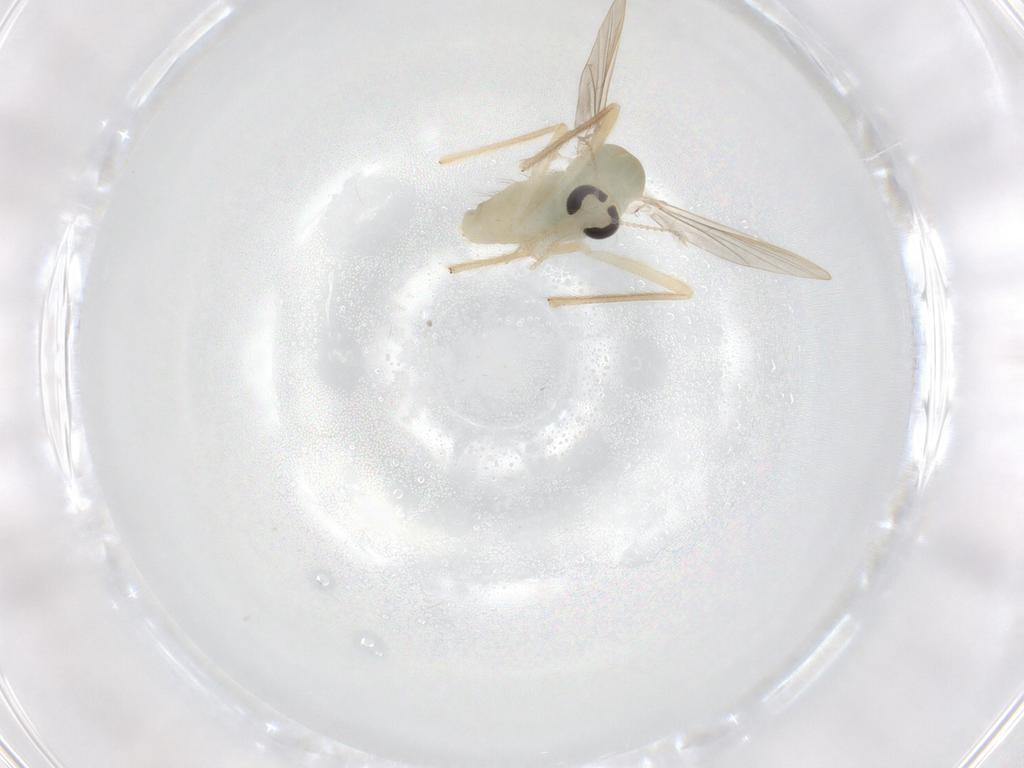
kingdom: Animalia
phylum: Arthropoda
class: Insecta
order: Diptera
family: Chironomidae
